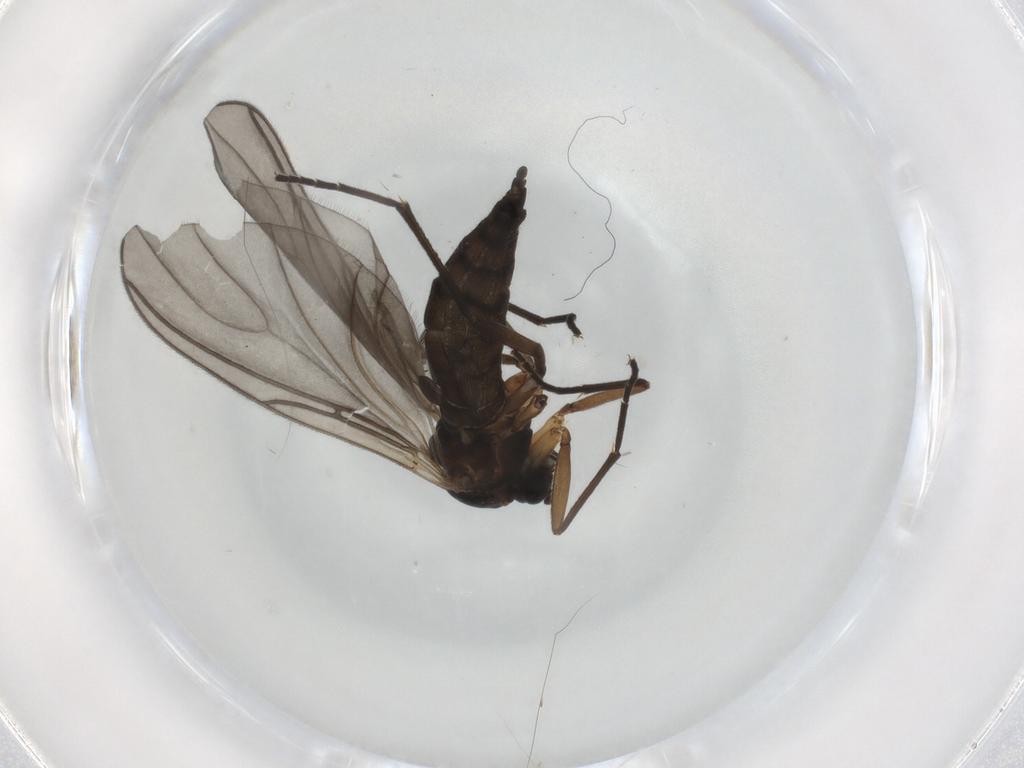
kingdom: Animalia
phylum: Arthropoda
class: Insecta
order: Diptera
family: Sciaridae
